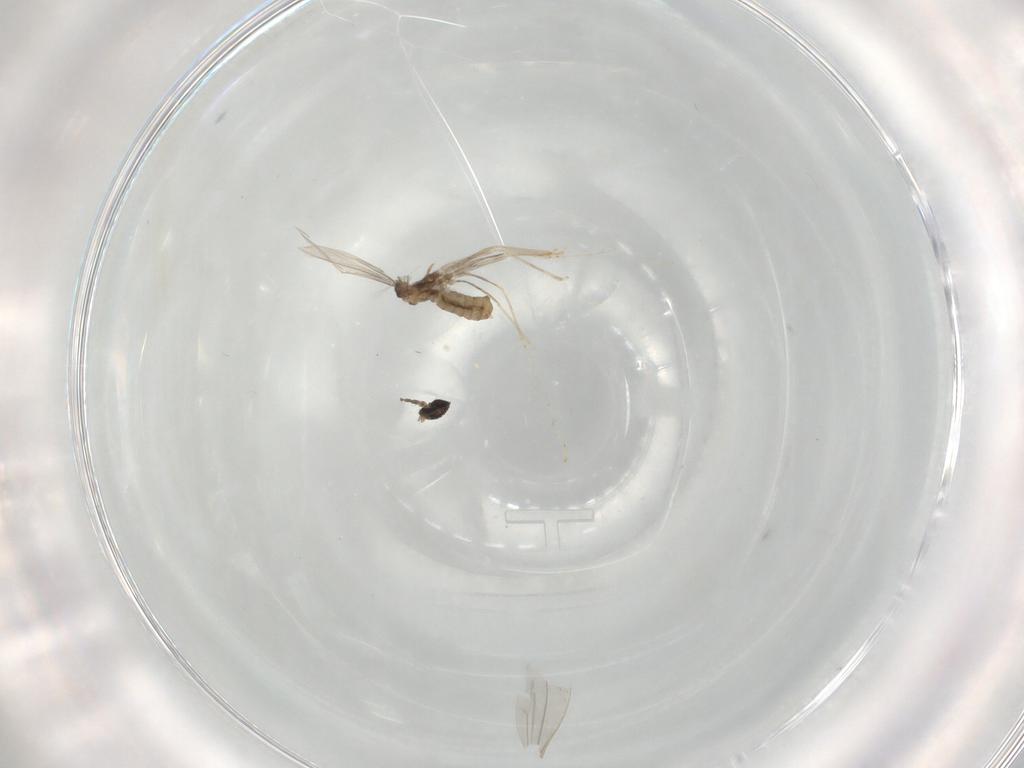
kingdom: Animalia
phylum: Arthropoda
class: Insecta
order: Diptera
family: Cecidomyiidae
